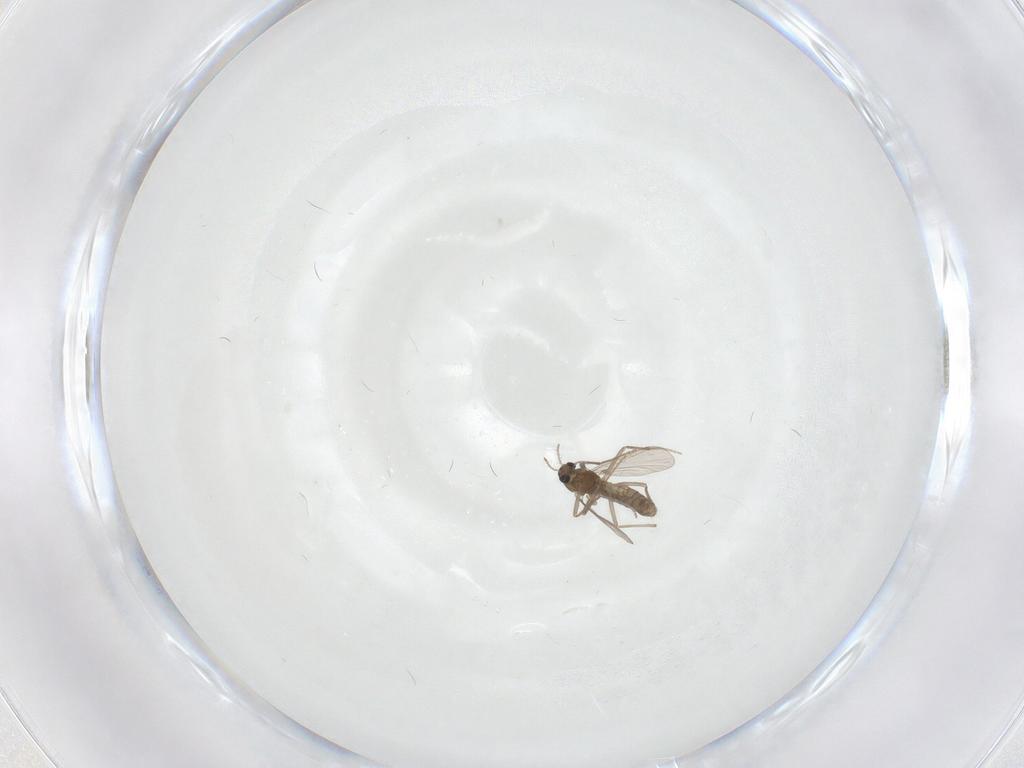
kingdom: Animalia
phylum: Arthropoda
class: Insecta
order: Diptera
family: Chironomidae
